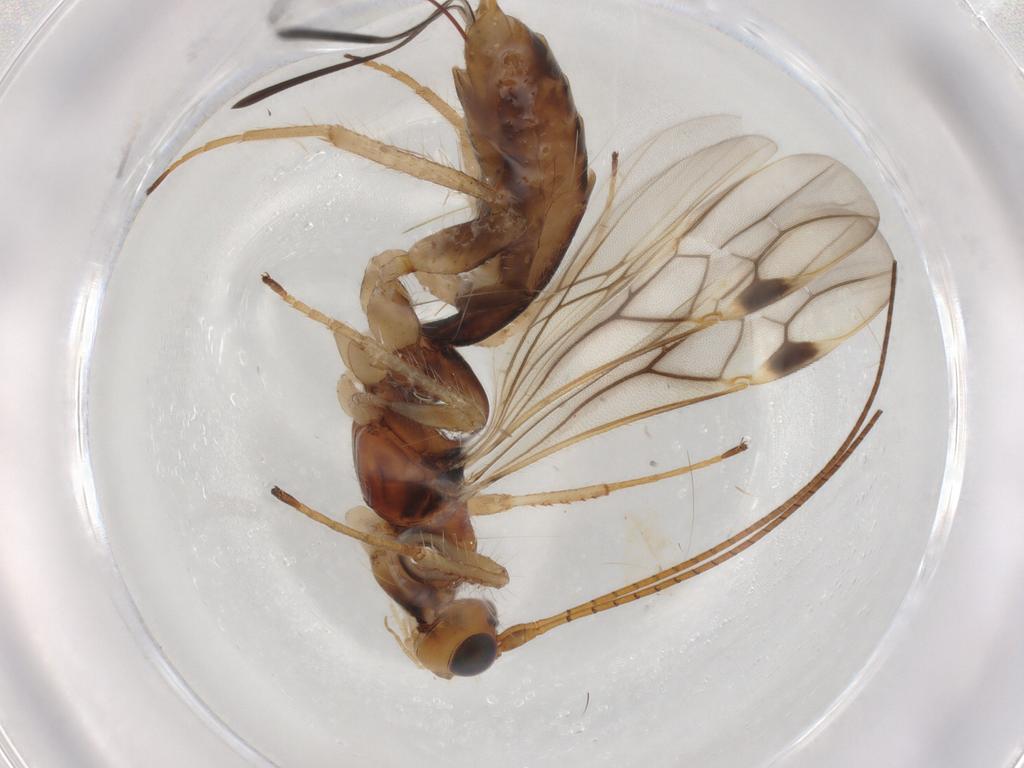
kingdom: Animalia
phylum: Arthropoda
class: Insecta
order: Hymenoptera
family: Braconidae
